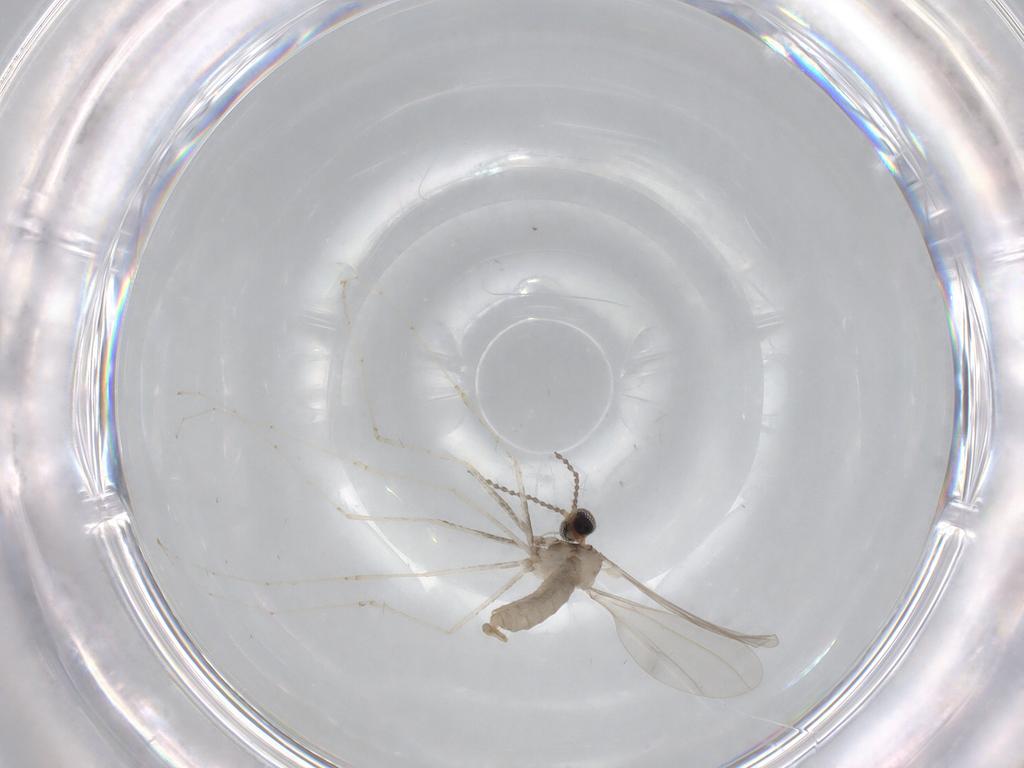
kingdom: Animalia
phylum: Arthropoda
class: Insecta
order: Diptera
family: Cecidomyiidae
